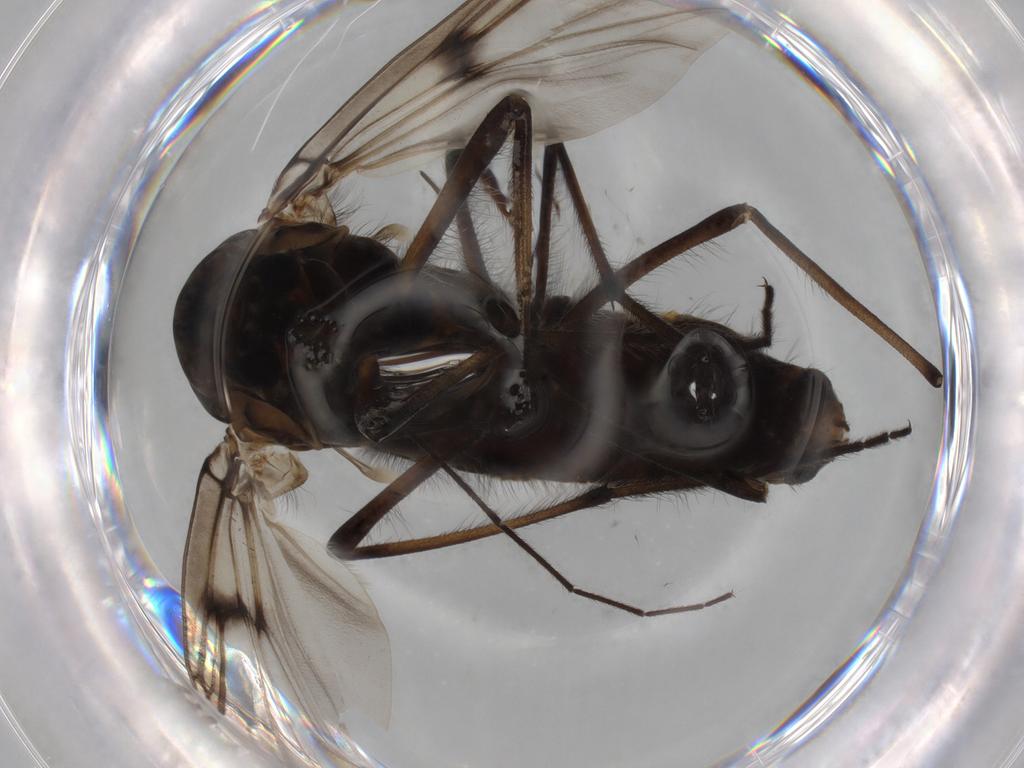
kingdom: Animalia
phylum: Arthropoda
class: Insecta
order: Diptera
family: Chironomidae
